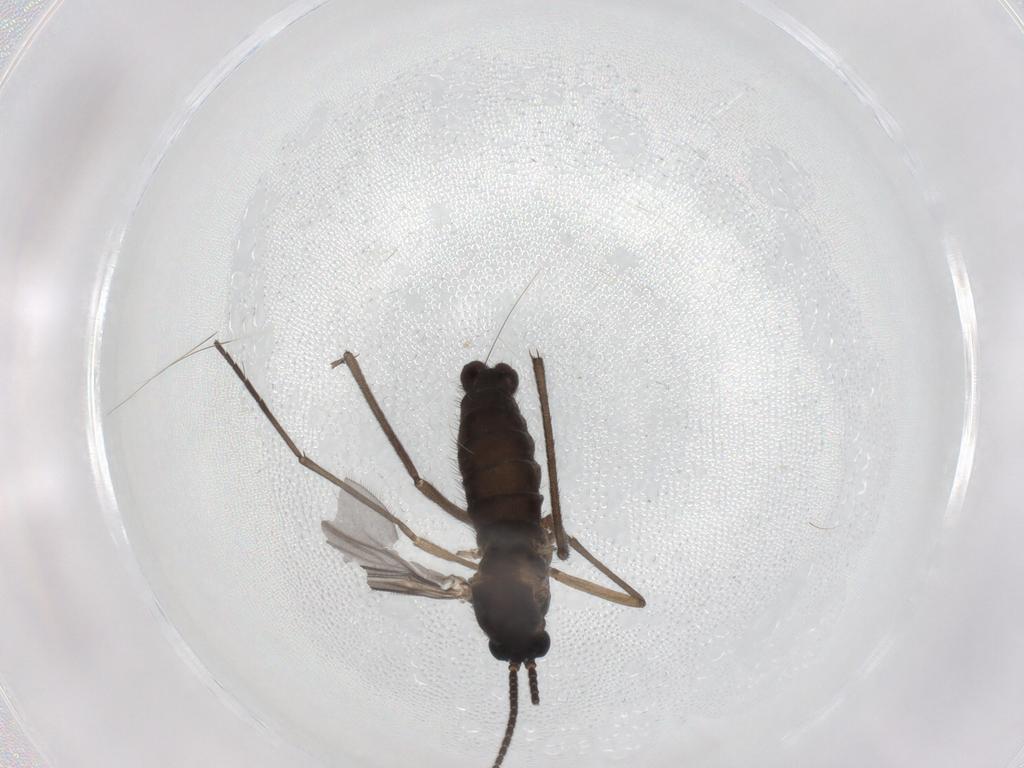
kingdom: Animalia
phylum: Arthropoda
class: Insecta
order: Diptera
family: Sciaridae
